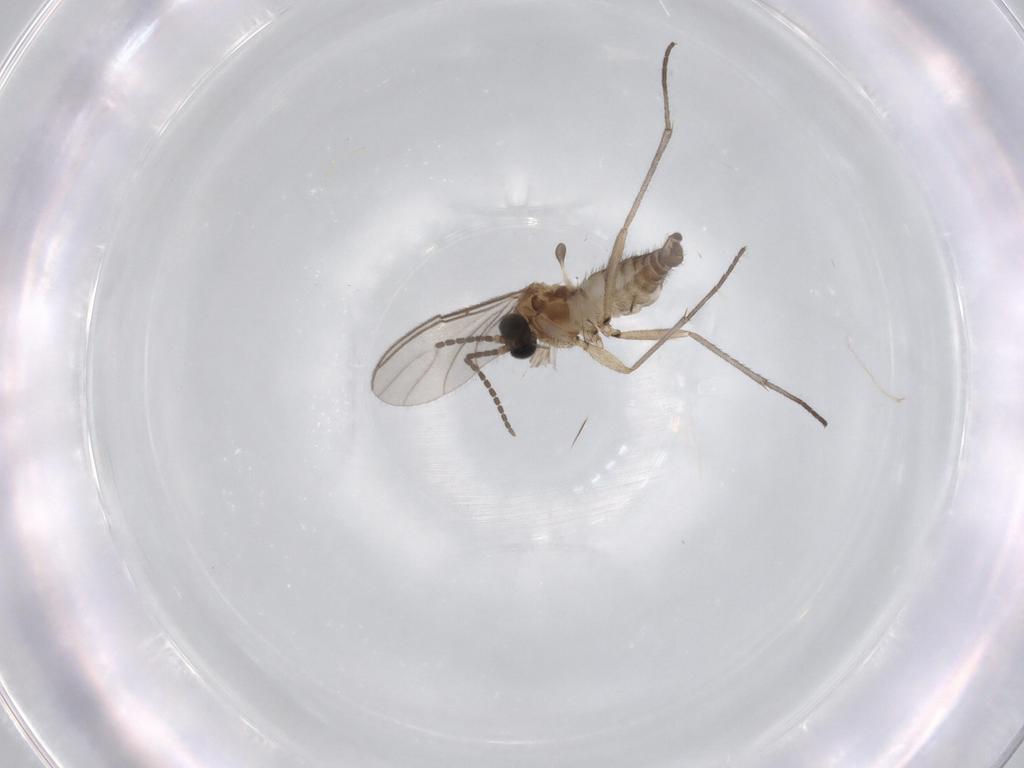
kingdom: Animalia
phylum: Arthropoda
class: Insecta
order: Diptera
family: Sciaridae
